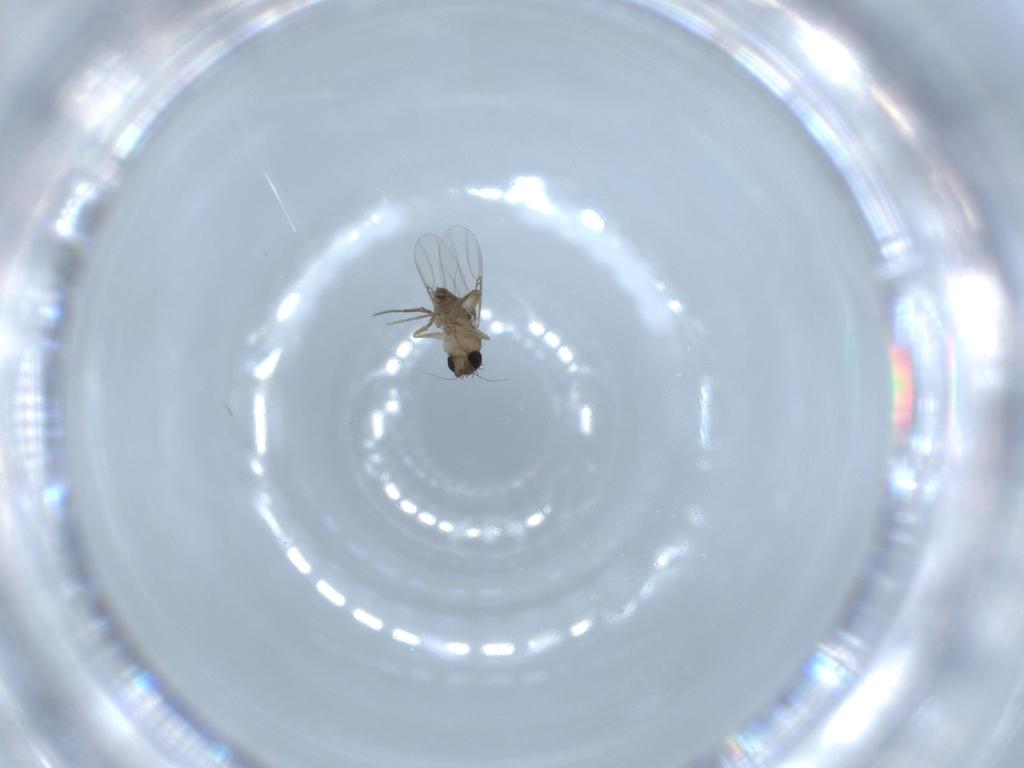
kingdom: Animalia
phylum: Arthropoda
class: Insecta
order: Diptera
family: Phoridae
